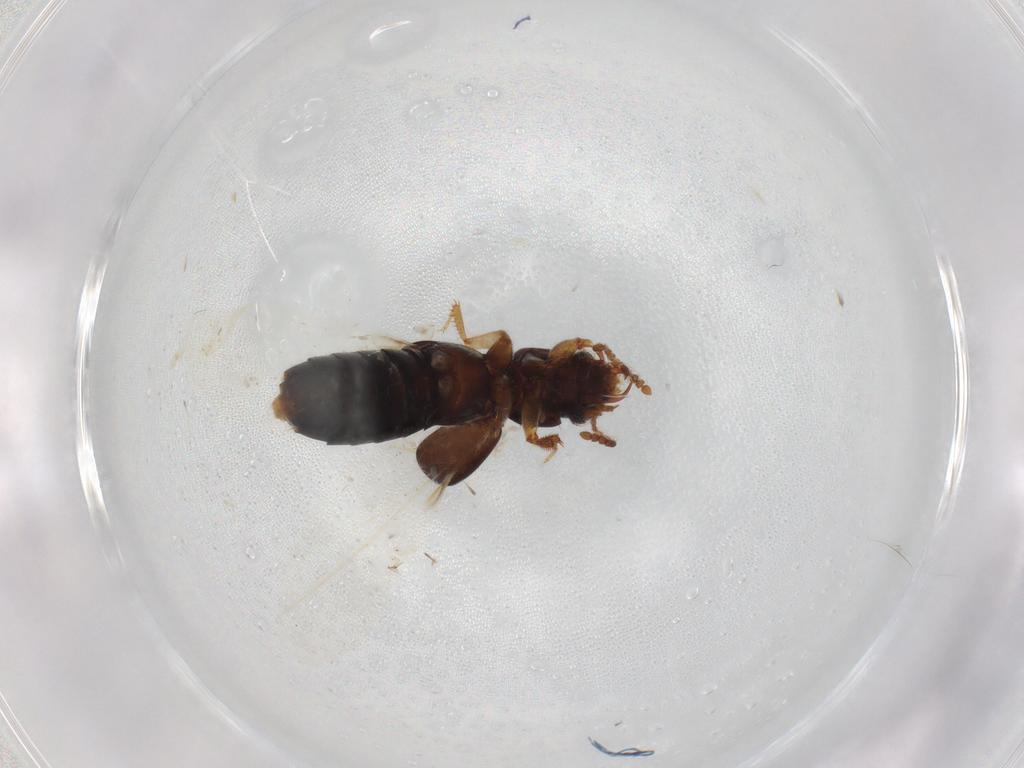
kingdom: Animalia
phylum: Arthropoda
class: Insecta
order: Coleoptera
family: Staphylinidae
